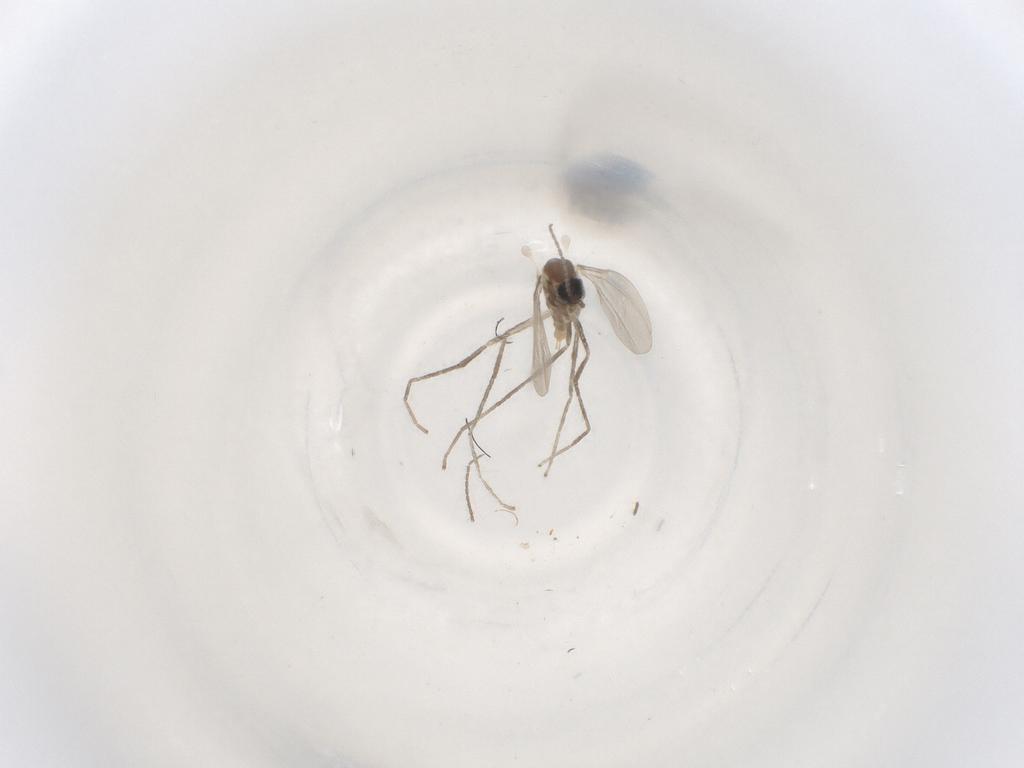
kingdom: Animalia
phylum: Arthropoda
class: Insecta
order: Diptera
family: Cecidomyiidae
